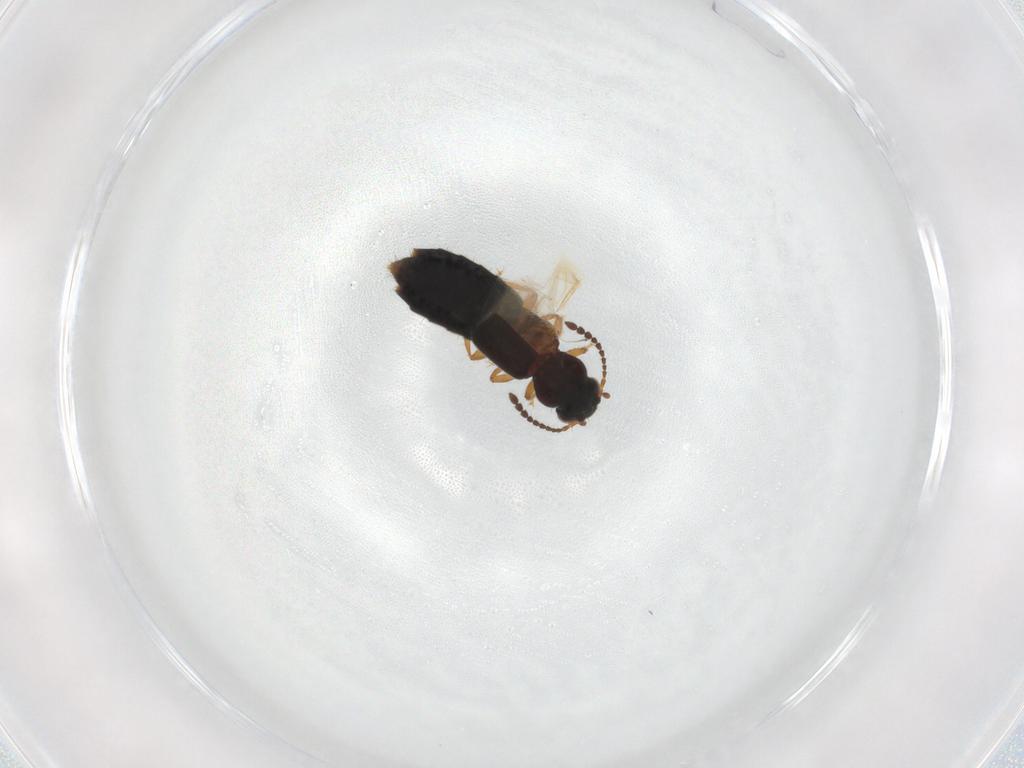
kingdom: Animalia
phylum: Arthropoda
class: Insecta
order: Coleoptera
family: Staphylinidae
